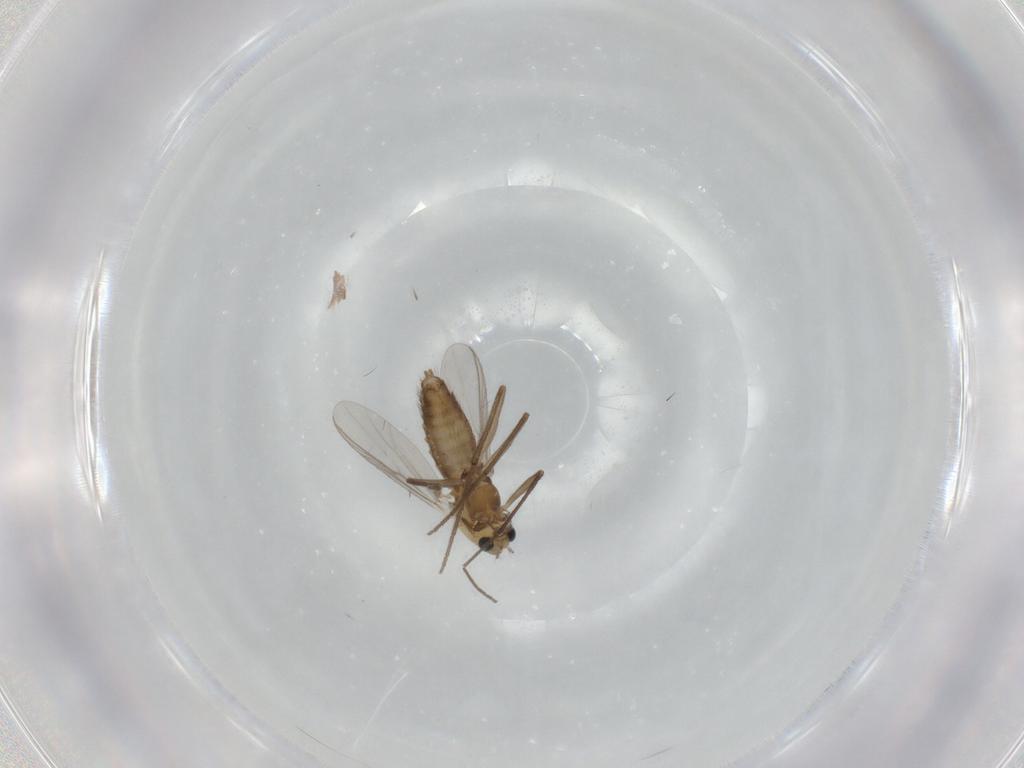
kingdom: Animalia
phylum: Arthropoda
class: Insecta
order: Diptera
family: Chironomidae
